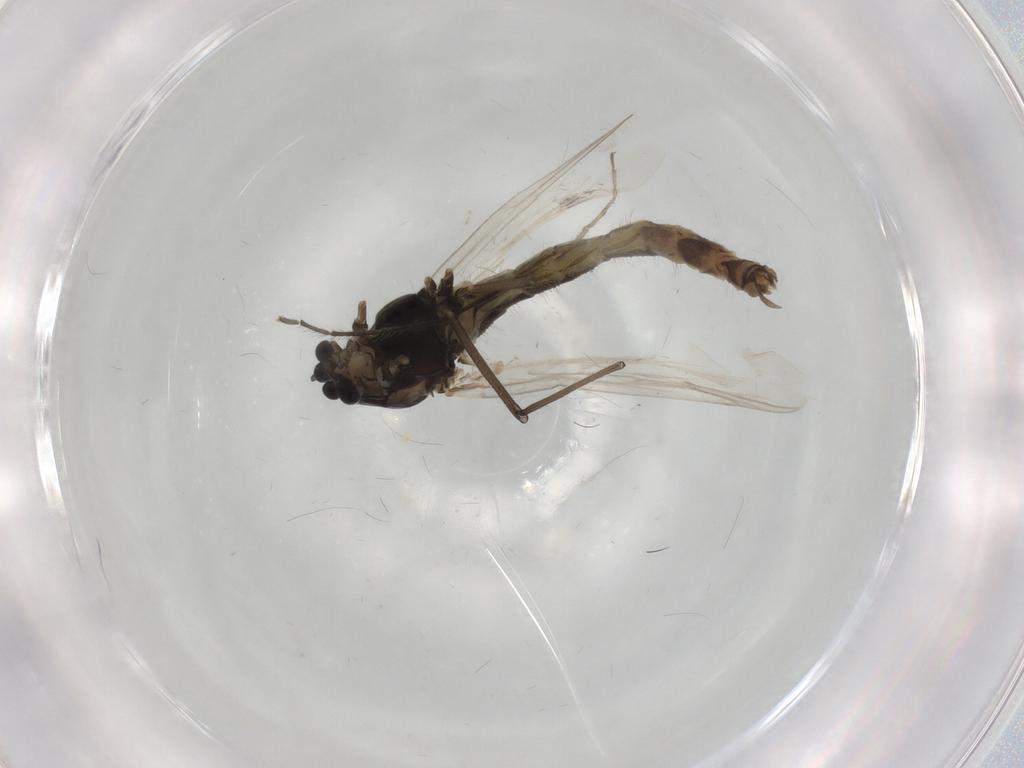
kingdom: Animalia
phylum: Arthropoda
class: Insecta
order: Diptera
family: Chironomidae
